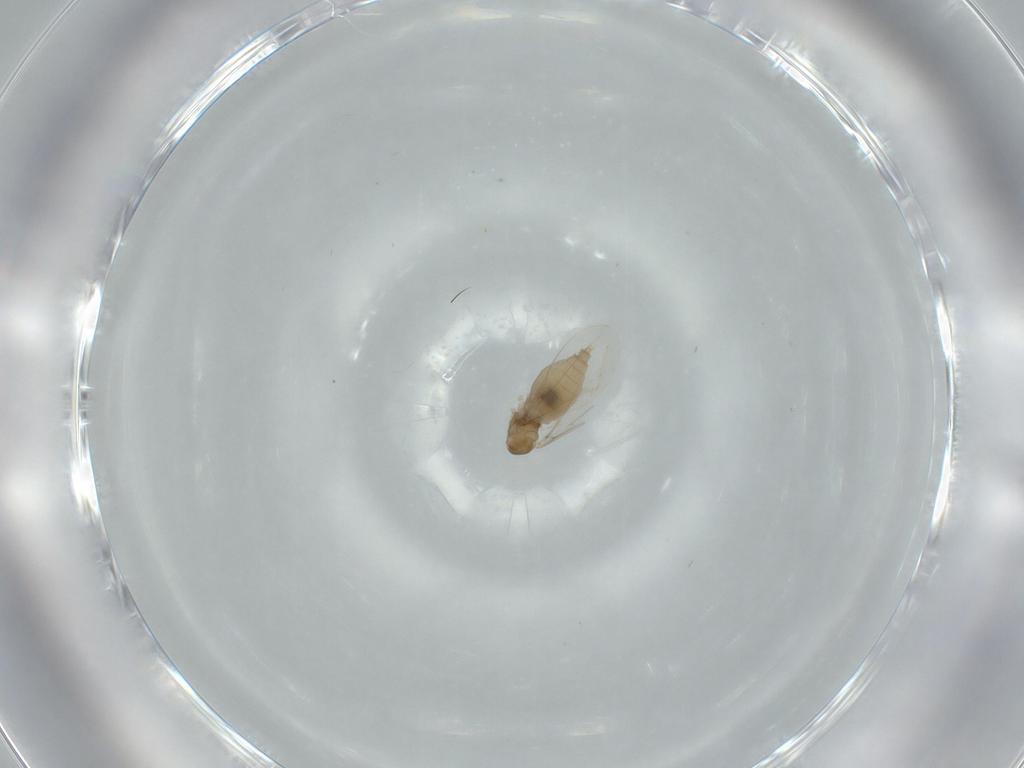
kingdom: Animalia
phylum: Arthropoda
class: Insecta
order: Diptera
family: Cecidomyiidae
